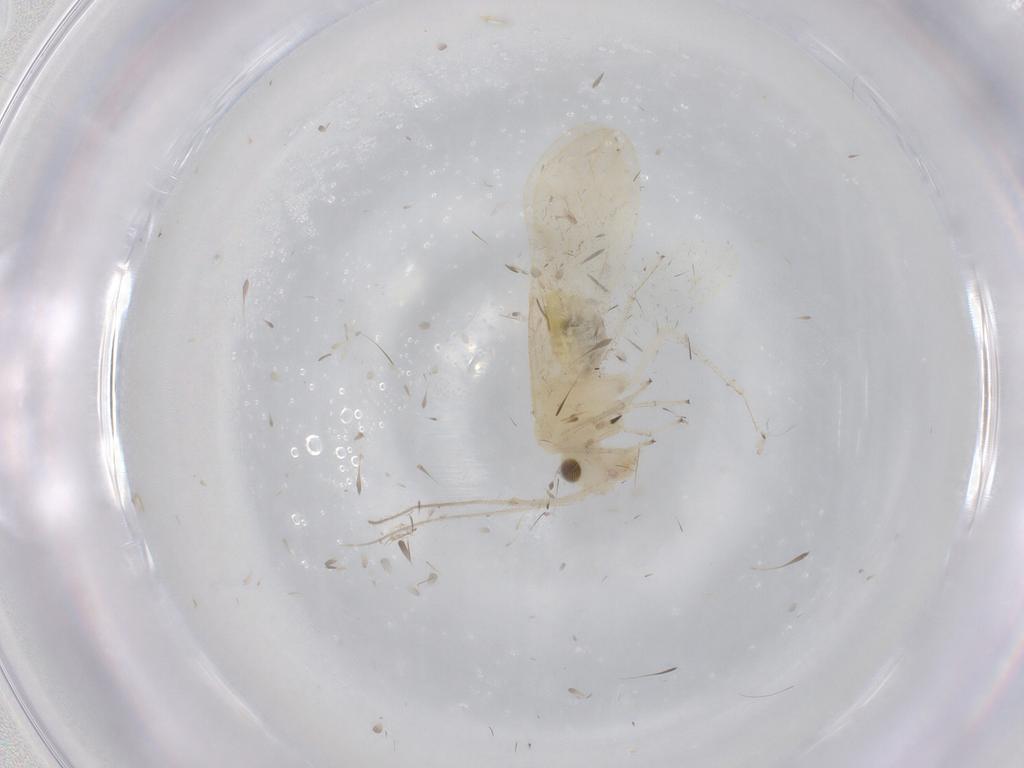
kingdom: Animalia
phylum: Arthropoda
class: Insecta
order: Psocodea
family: Caeciliusidae
